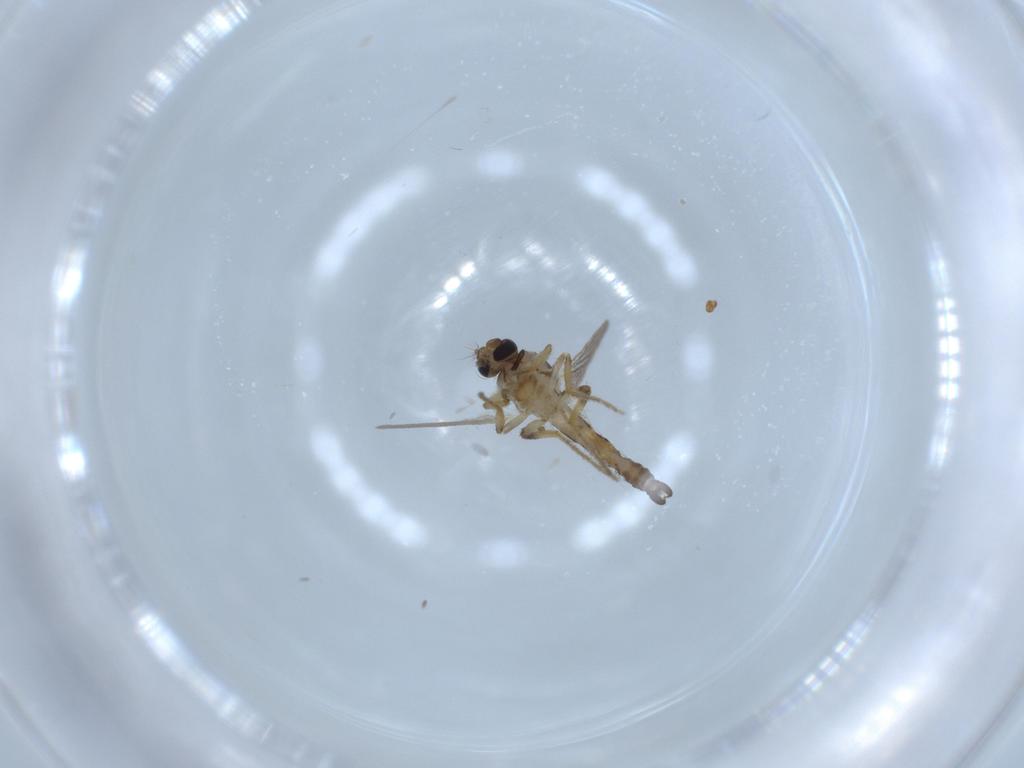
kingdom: Animalia
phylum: Arthropoda
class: Insecta
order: Diptera
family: Ceratopogonidae
